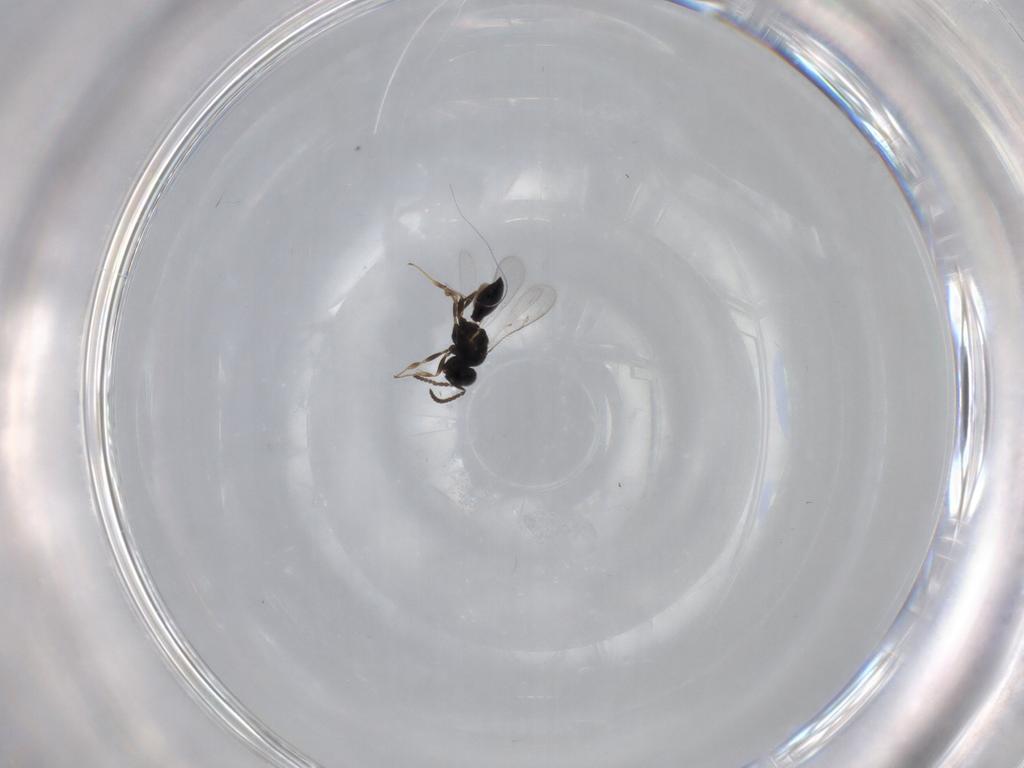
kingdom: Animalia
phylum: Arthropoda
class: Insecta
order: Hymenoptera
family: Scelionidae
